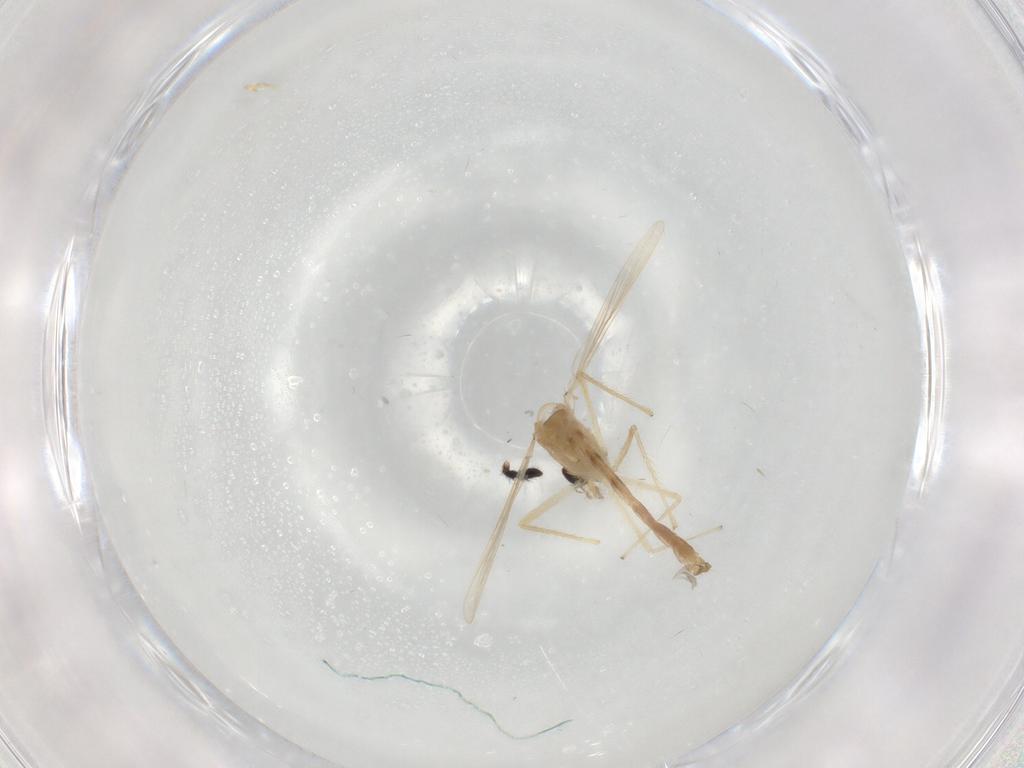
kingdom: Animalia
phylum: Arthropoda
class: Insecta
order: Diptera
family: Chironomidae
